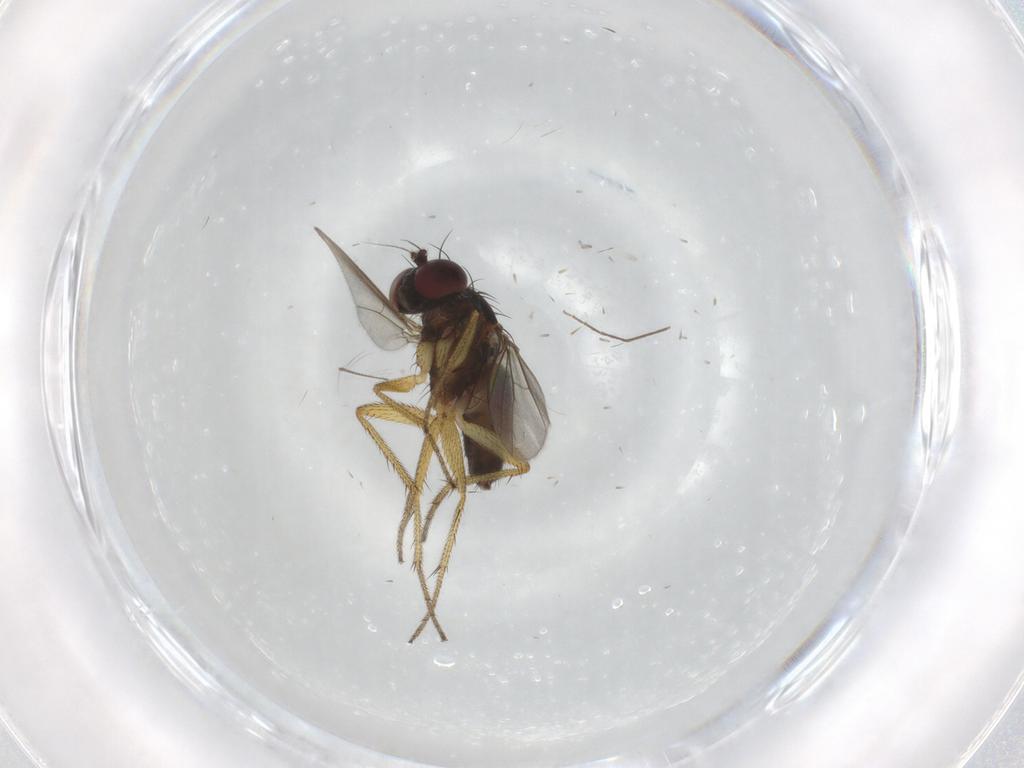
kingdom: Animalia
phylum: Arthropoda
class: Insecta
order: Diptera
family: Chironomidae
